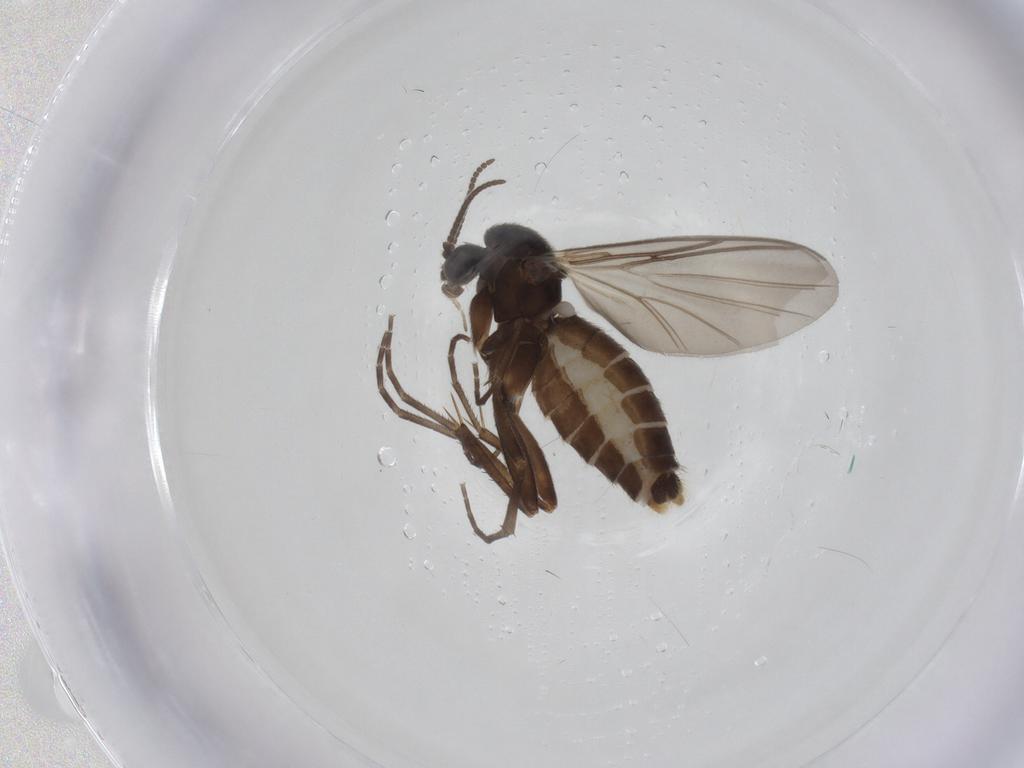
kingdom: Animalia
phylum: Arthropoda
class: Insecta
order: Diptera
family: Mycetophilidae
